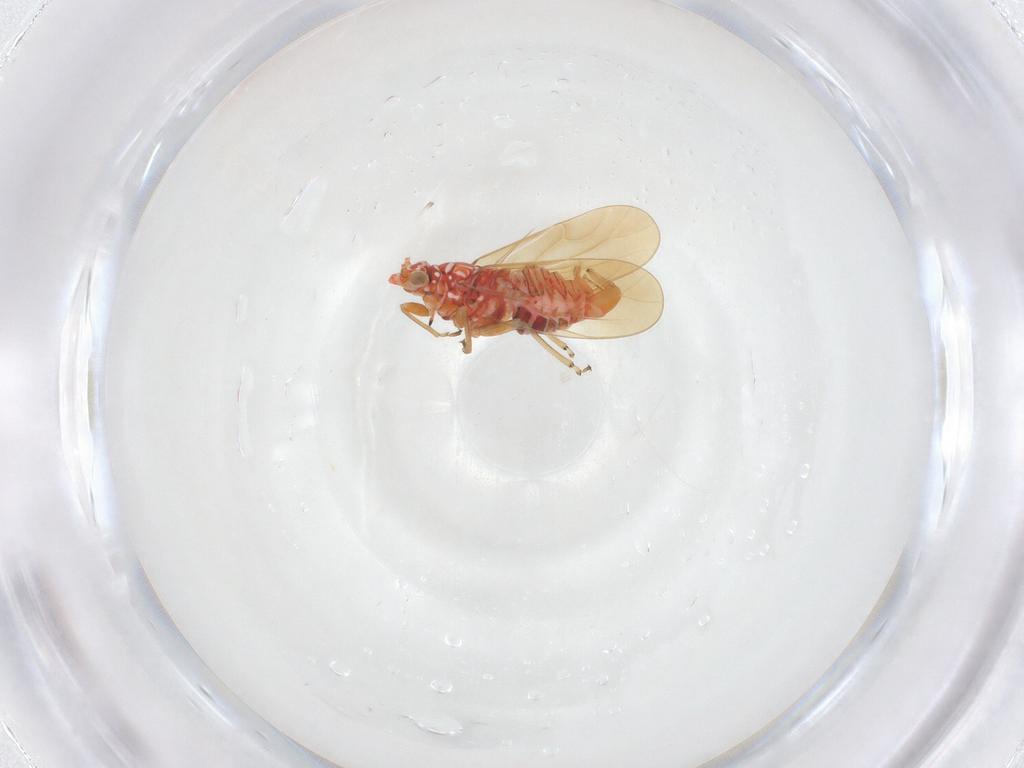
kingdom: Animalia
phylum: Arthropoda
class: Insecta
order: Hemiptera
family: Psyllidae
